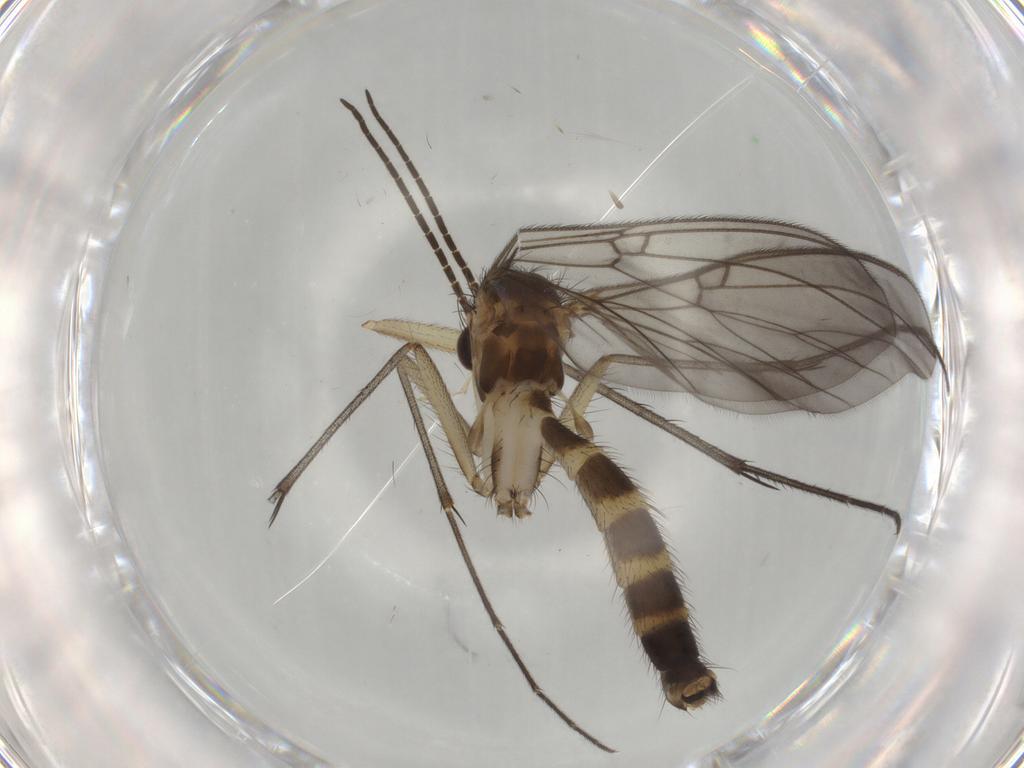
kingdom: Animalia
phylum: Arthropoda
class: Insecta
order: Diptera
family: Mycetophilidae
